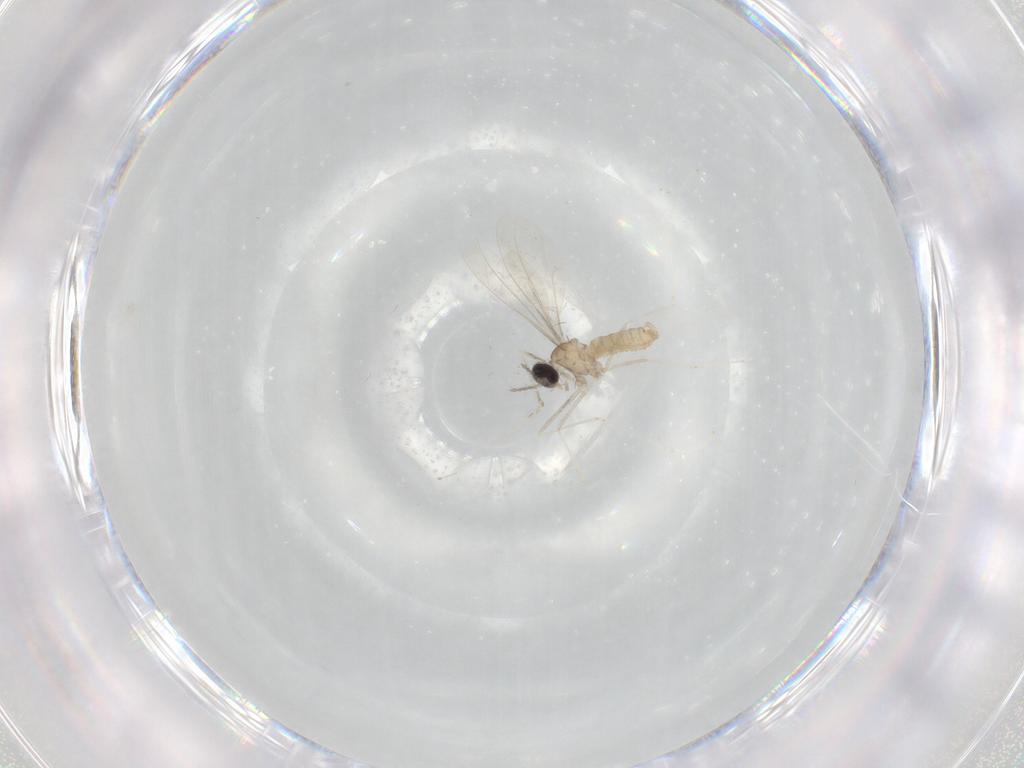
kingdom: Animalia
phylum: Arthropoda
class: Insecta
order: Diptera
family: Cecidomyiidae
